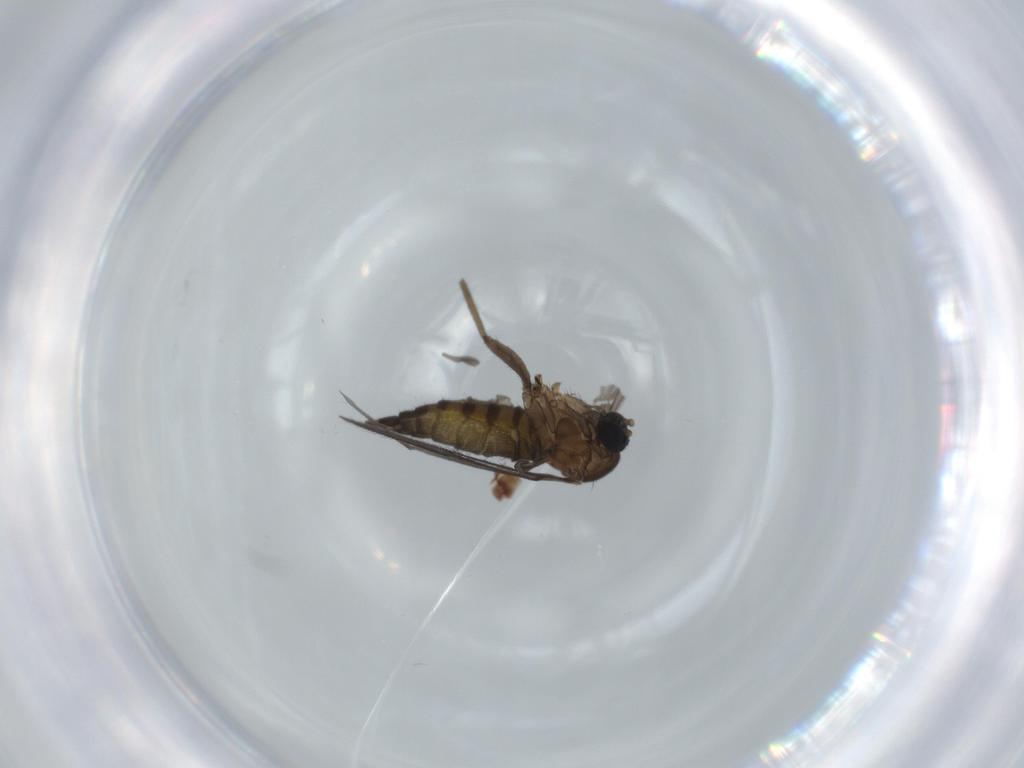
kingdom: Animalia
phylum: Arthropoda
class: Insecta
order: Diptera
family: Sciaridae
